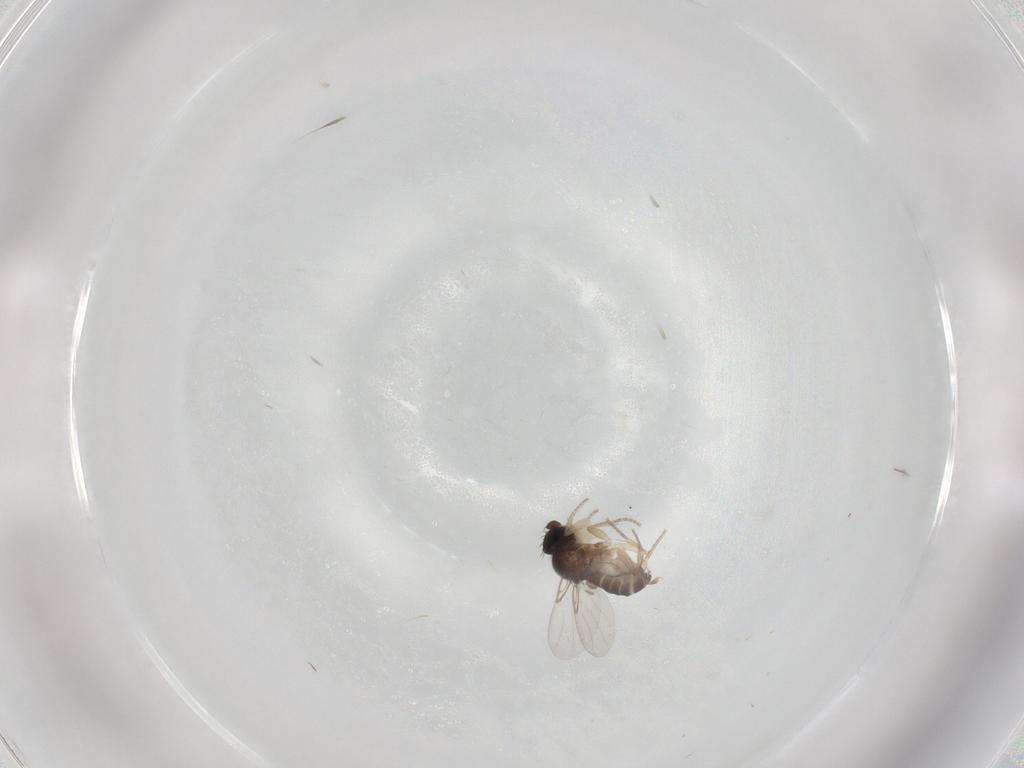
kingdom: Animalia
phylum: Arthropoda
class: Insecta
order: Diptera
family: Phoridae
